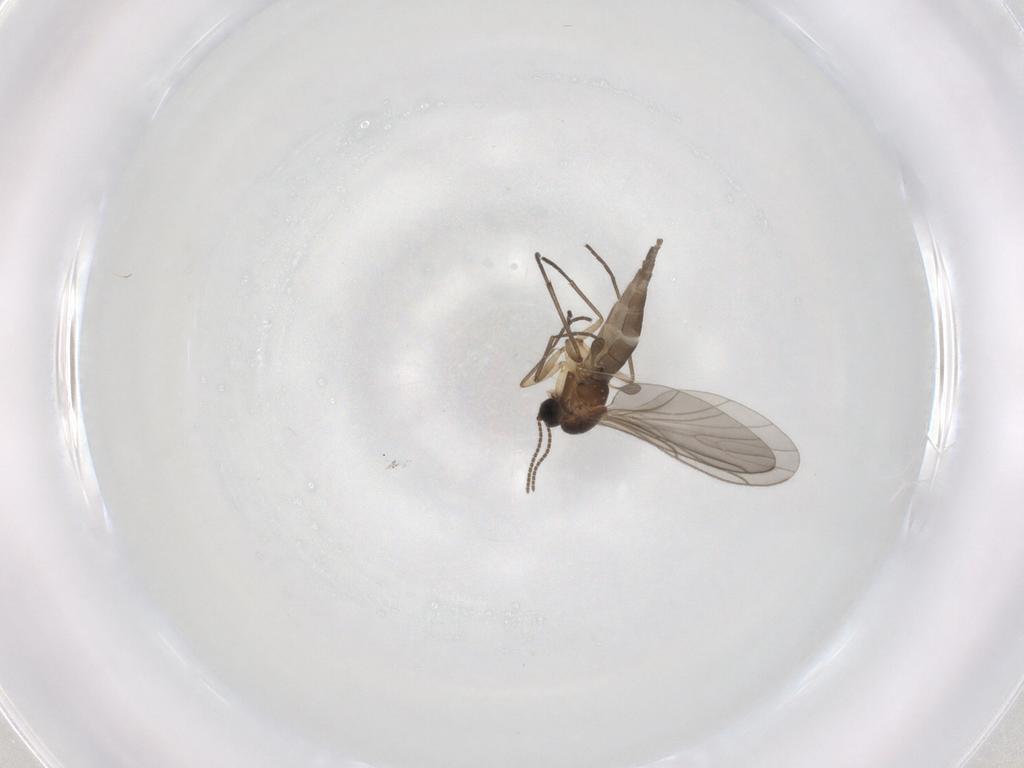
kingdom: Animalia
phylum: Arthropoda
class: Insecta
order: Diptera
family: Sciaridae
